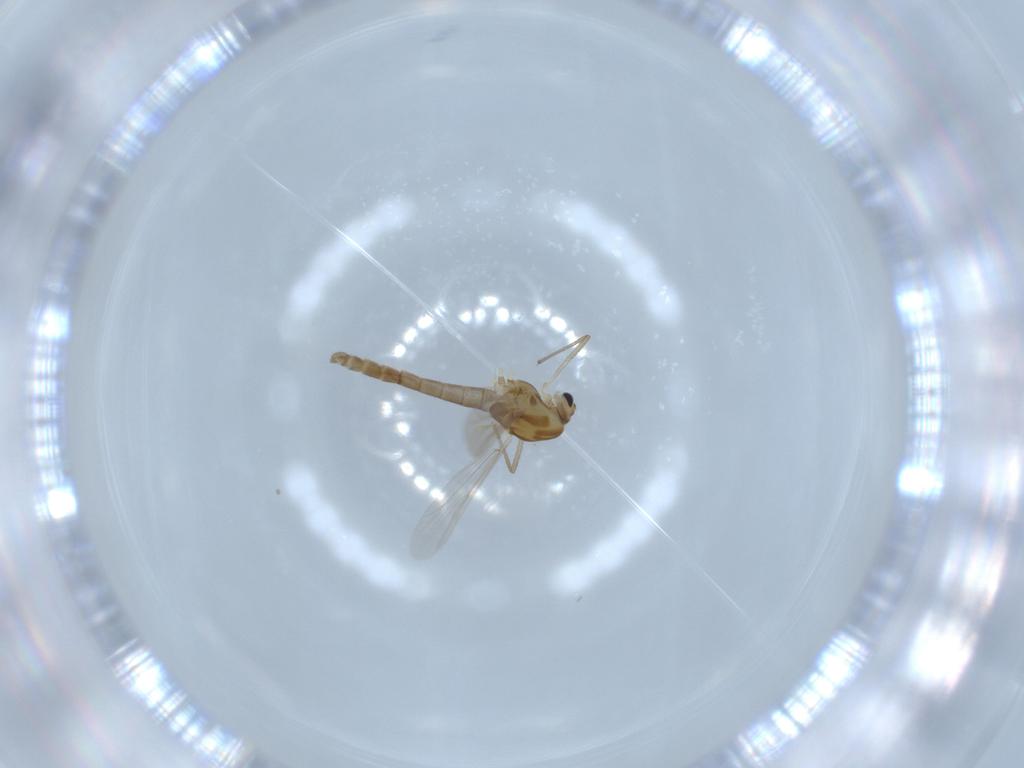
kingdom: Animalia
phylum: Arthropoda
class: Insecta
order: Diptera
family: Chironomidae
